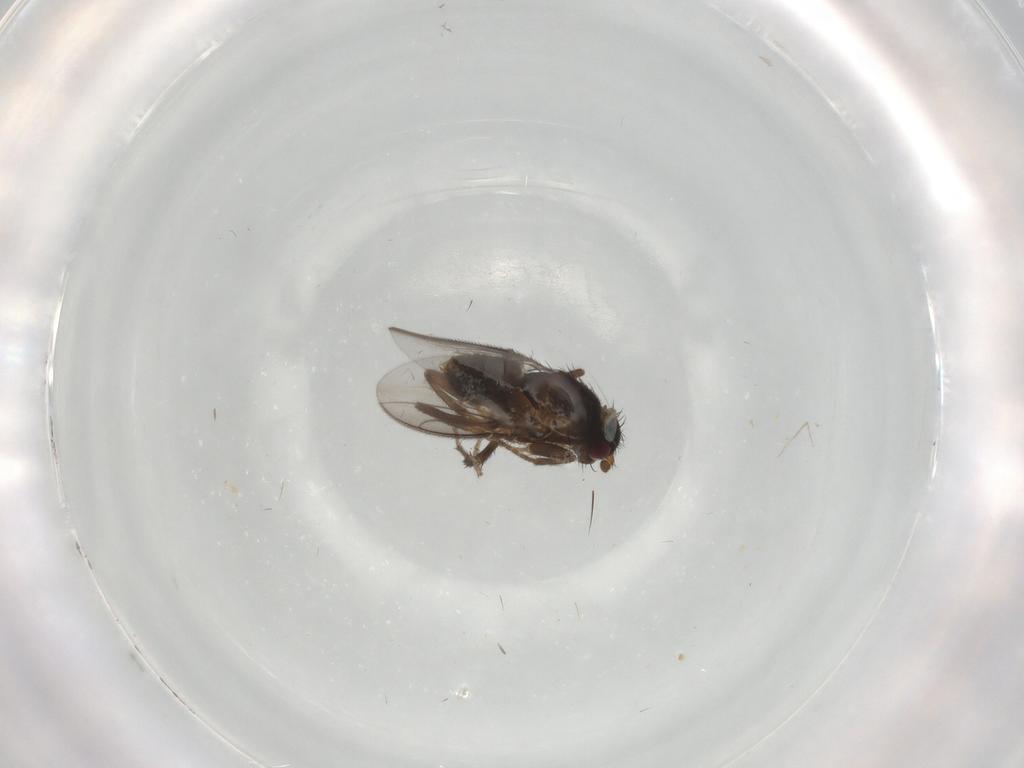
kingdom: Animalia
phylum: Arthropoda
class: Insecta
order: Diptera
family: Sphaeroceridae
